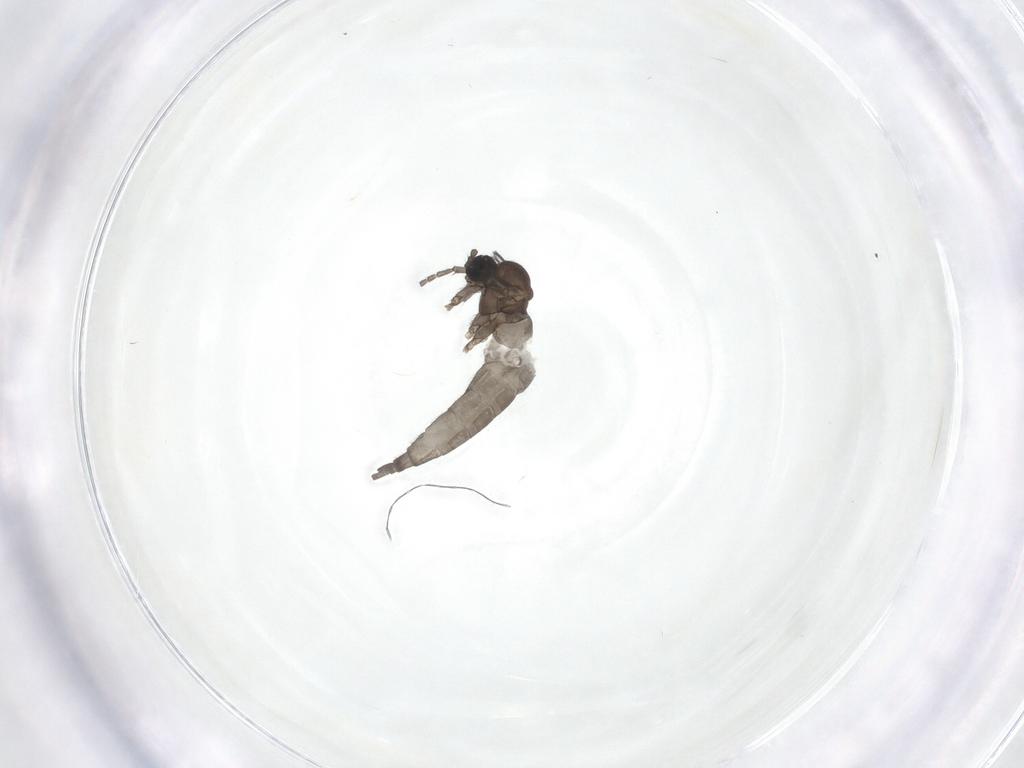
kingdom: Animalia
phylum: Arthropoda
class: Insecta
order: Diptera
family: Sciaridae
